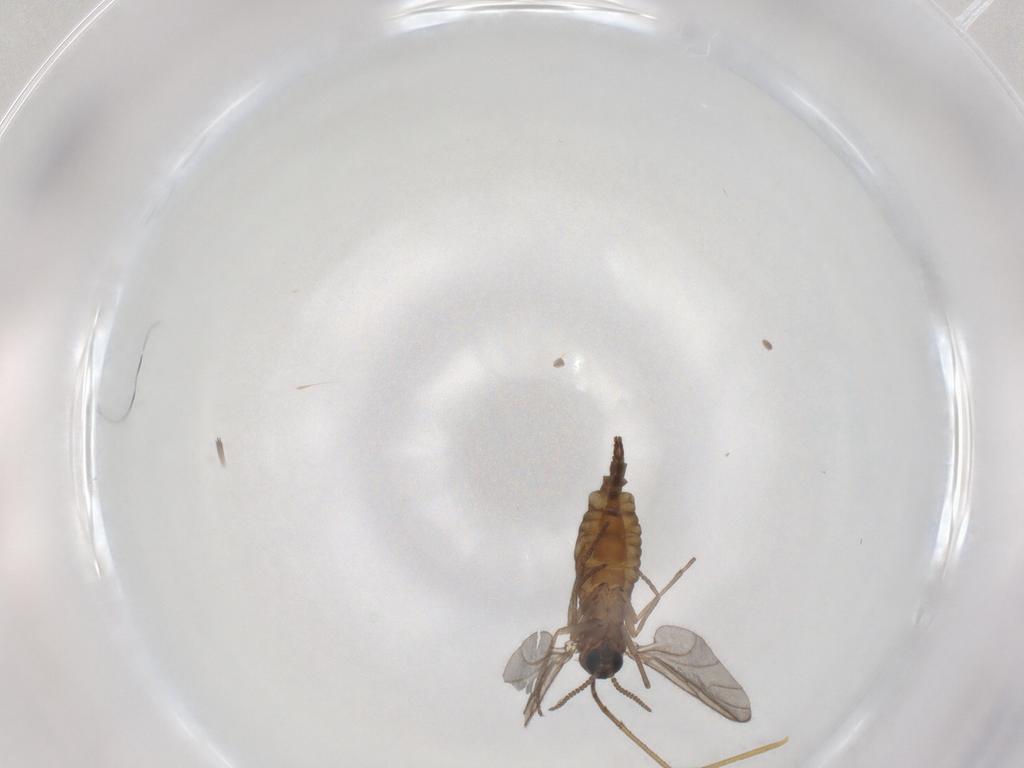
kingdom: Animalia
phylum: Arthropoda
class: Insecta
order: Diptera
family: Sciaridae
